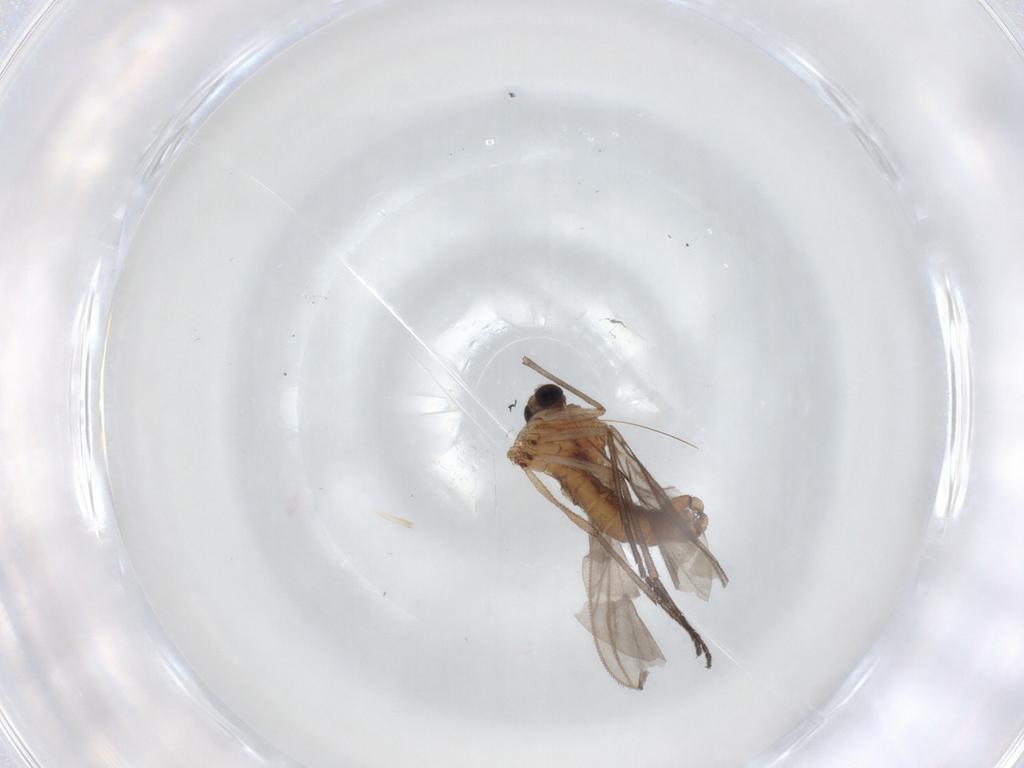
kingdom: Animalia
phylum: Arthropoda
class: Insecta
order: Diptera
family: Sciaridae
